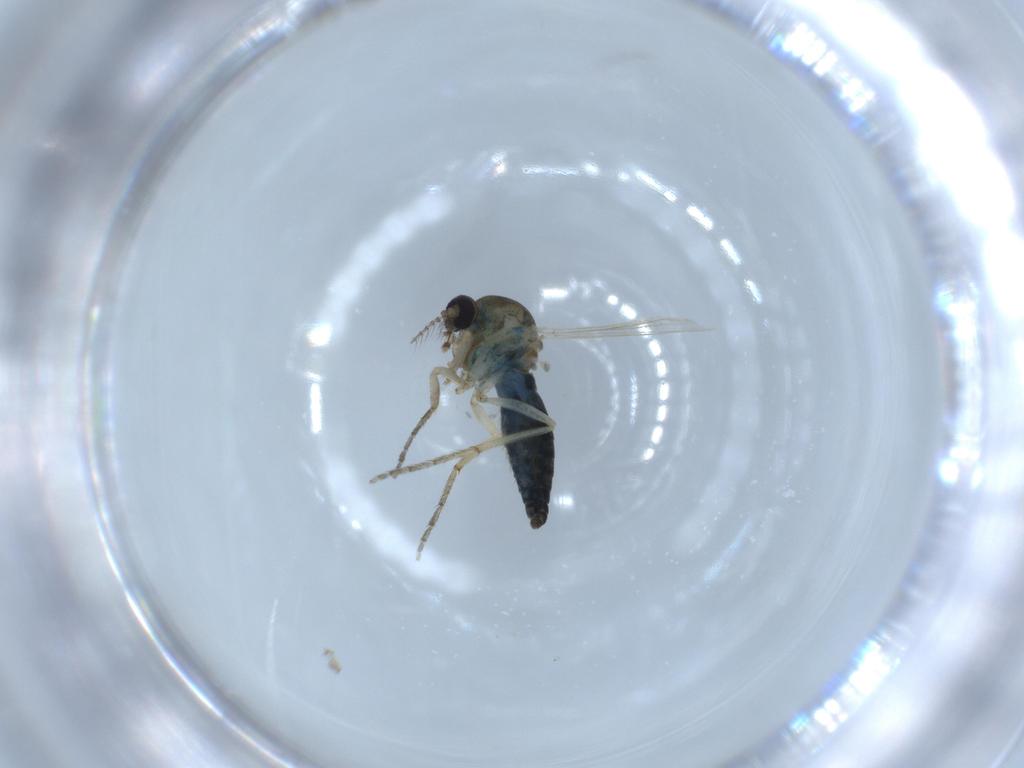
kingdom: Animalia
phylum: Arthropoda
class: Insecta
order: Diptera
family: Ceratopogonidae
